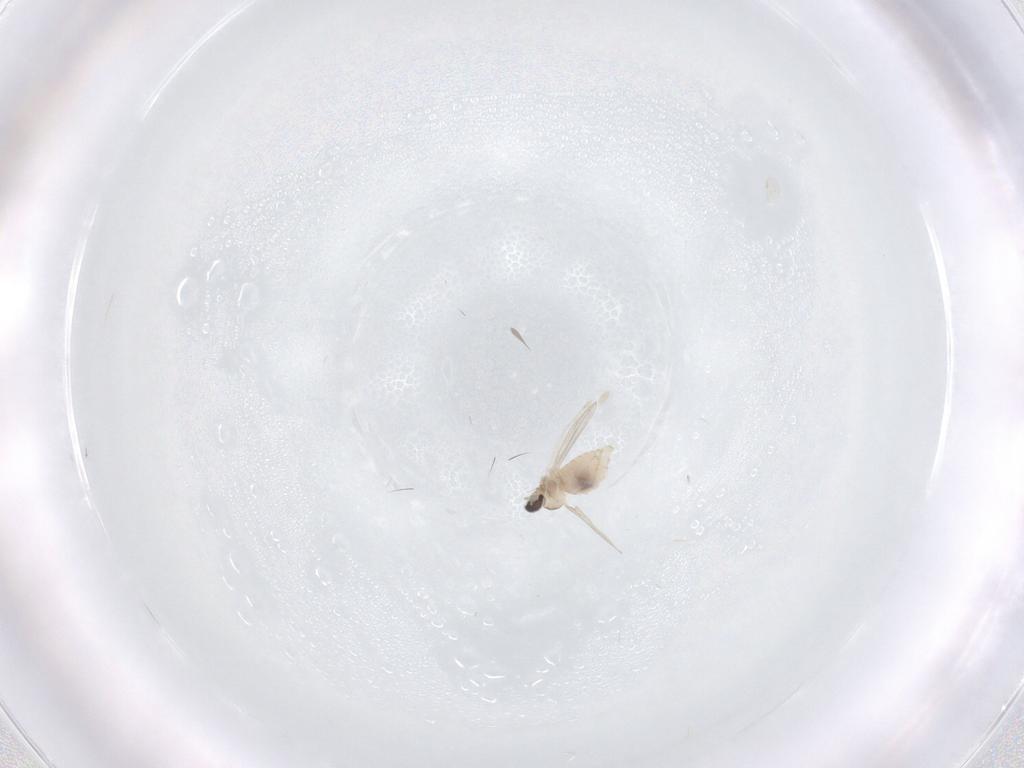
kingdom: Animalia
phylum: Arthropoda
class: Insecta
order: Diptera
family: Cecidomyiidae
